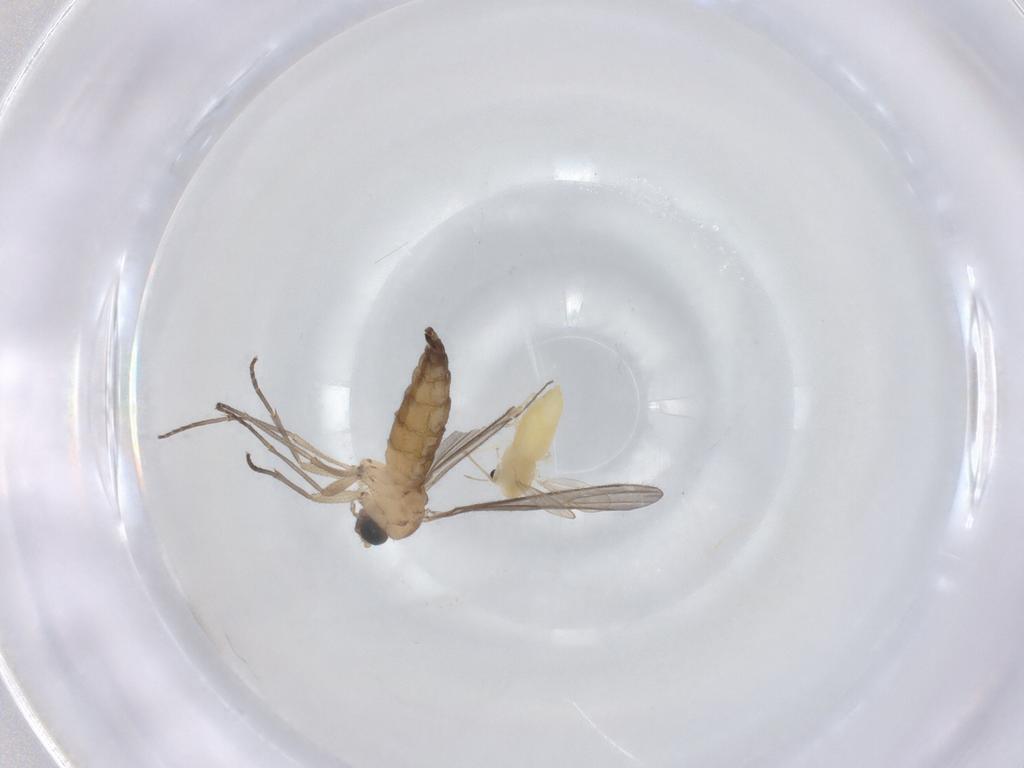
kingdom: Animalia
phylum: Arthropoda
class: Insecta
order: Diptera
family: Sciaridae
